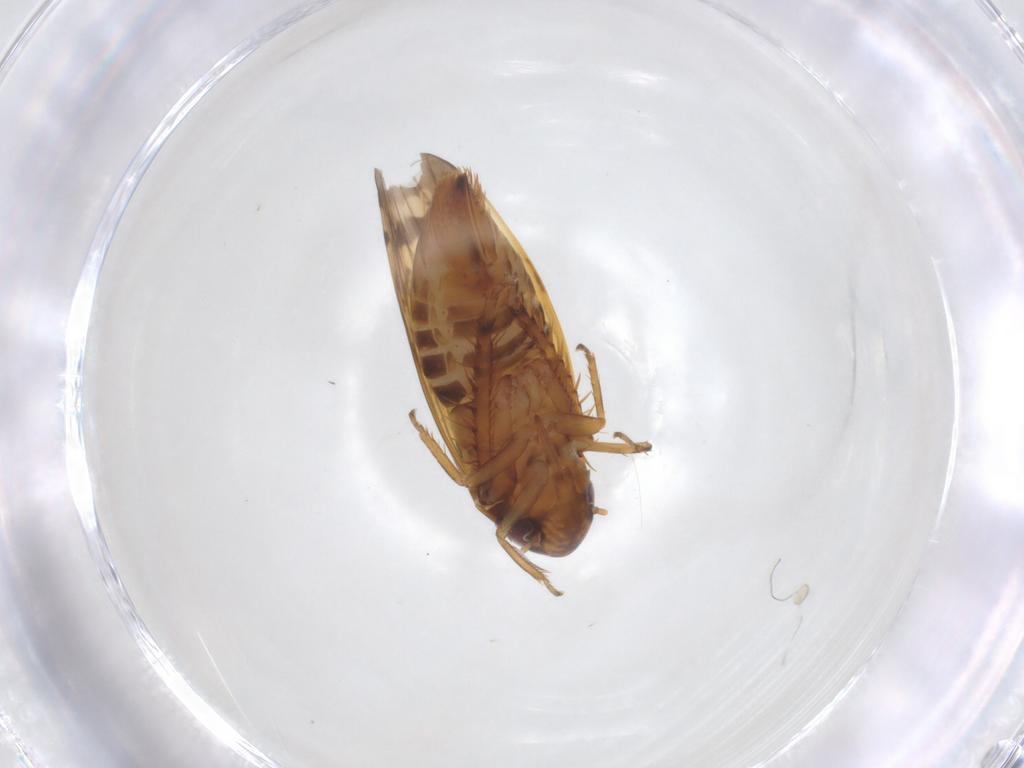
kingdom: Animalia
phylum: Arthropoda
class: Insecta
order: Hemiptera
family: Cicadellidae
